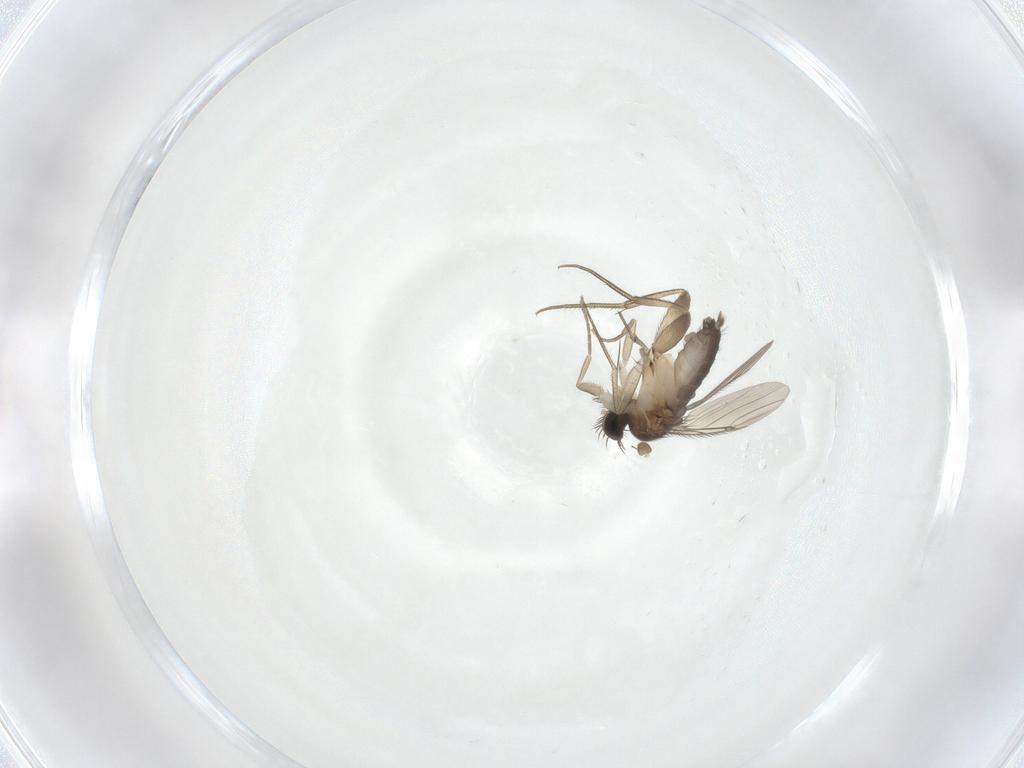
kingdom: Animalia
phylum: Arthropoda
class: Insecta
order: Diptera
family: Phoridae
